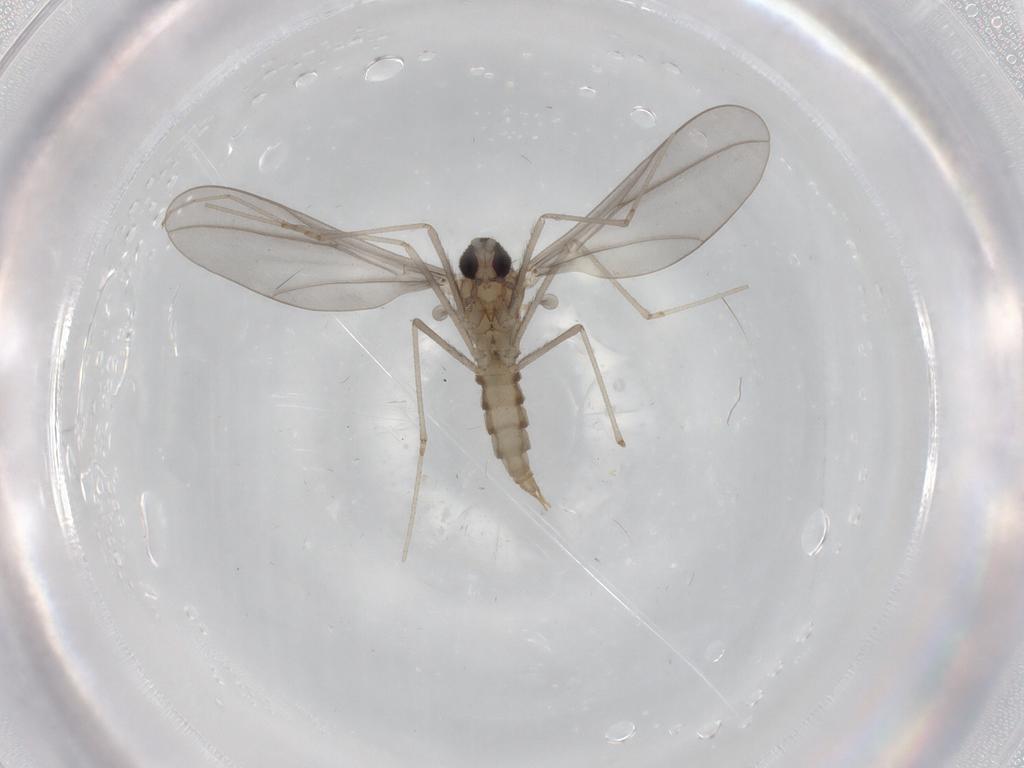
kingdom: Animalia
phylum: Arthropoda
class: Insecta
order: Diptera
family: Cecidomyiidae
